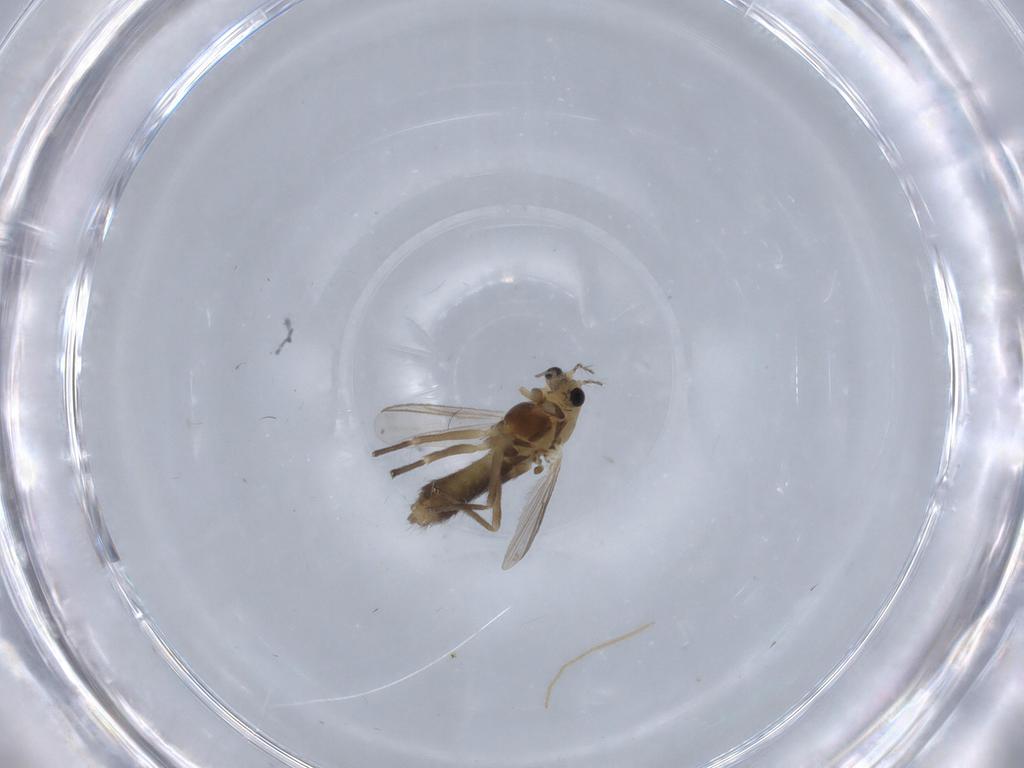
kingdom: Animalia
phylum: Arthropoda
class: Insecta
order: Diptera
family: Chironomidae
